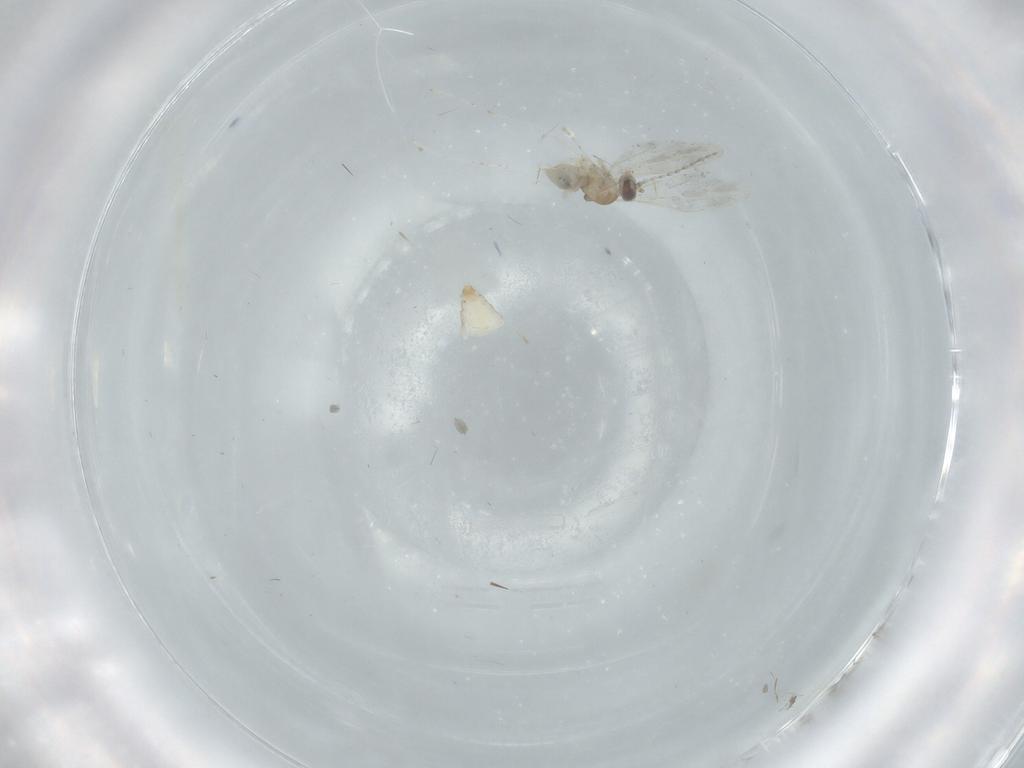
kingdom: Animalia
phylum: Arthropoda
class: Insecta
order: Diptera
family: Cecidomyiidae
